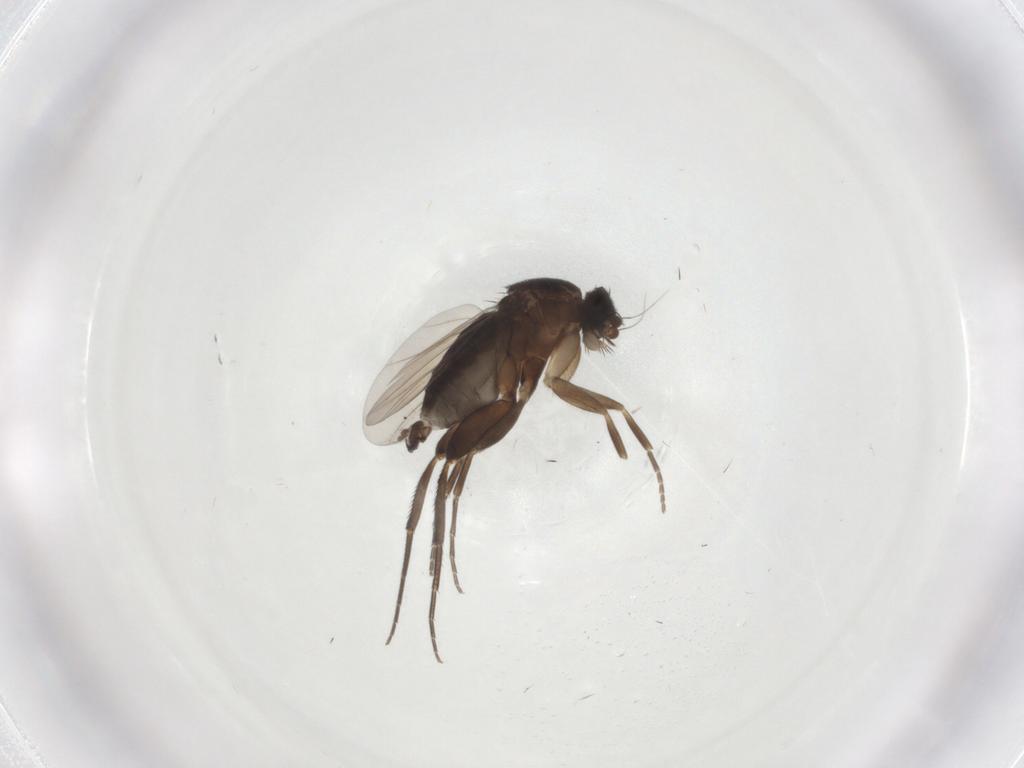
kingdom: Animalia
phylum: Arthropoda
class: Insecta
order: Diptera
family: Phoridae
